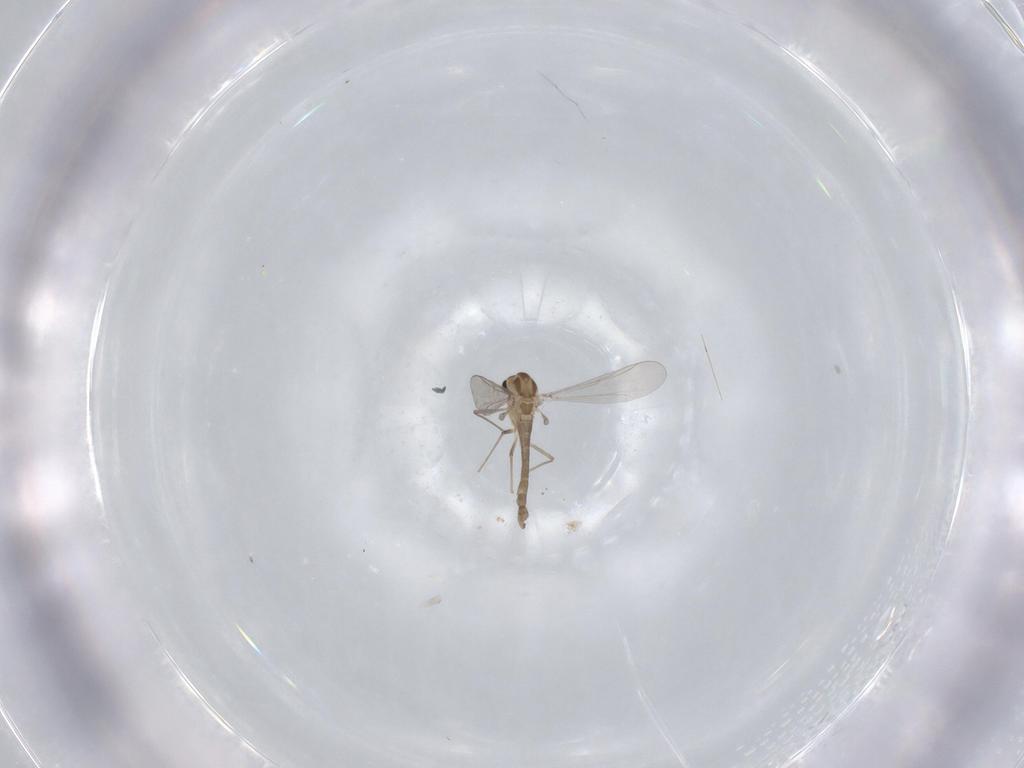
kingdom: Animalia
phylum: Arthropoda
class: Insecta
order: Diptera
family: Chironomidae
